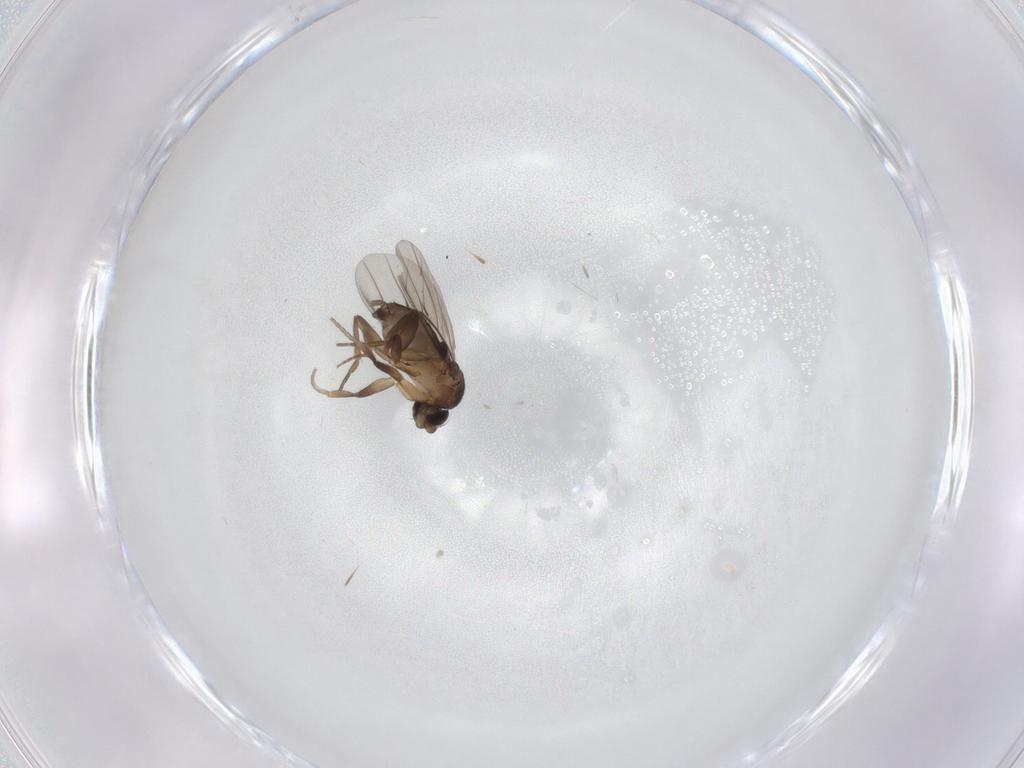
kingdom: Animalia
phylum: Arthropoda
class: Insecta
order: Diptera
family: Phoridae
